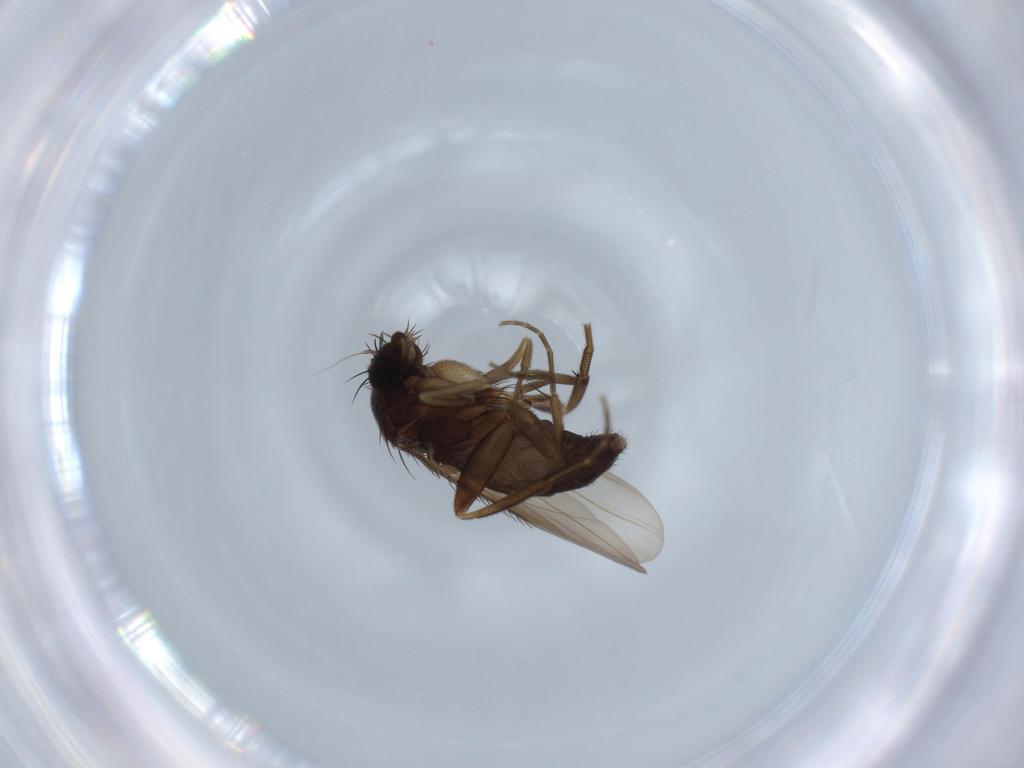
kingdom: Animalia
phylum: Arthropoda
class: Insecta
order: Diptera
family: Phoridae
